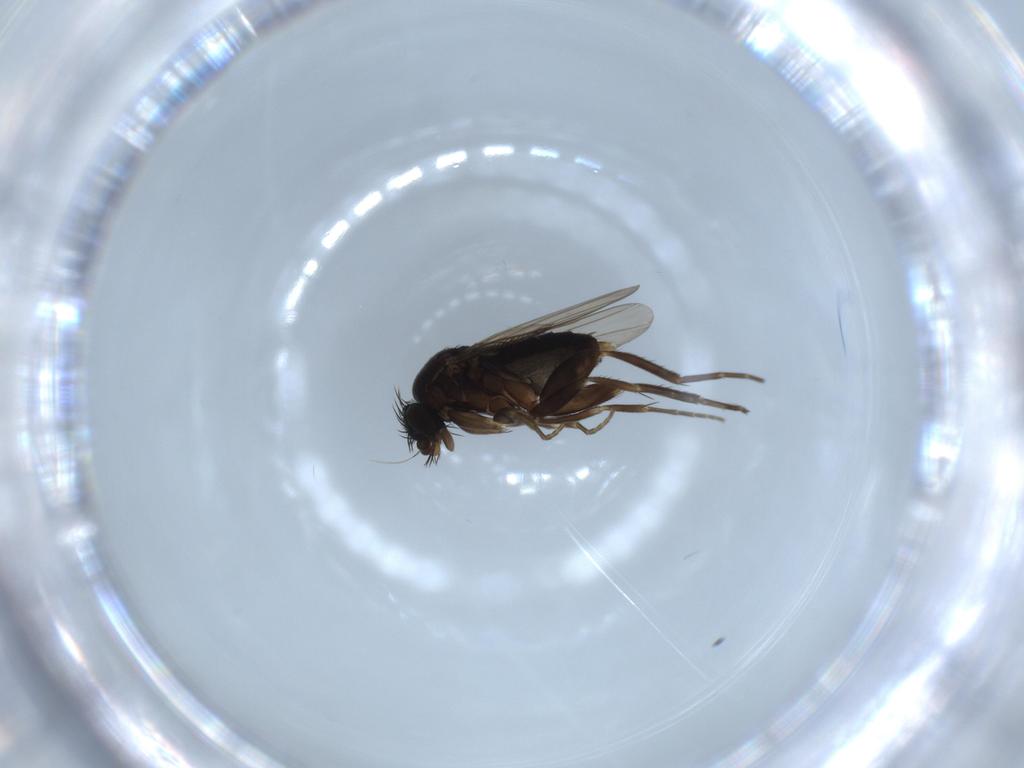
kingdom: Animalia
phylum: Arthropoda
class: Insecta
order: Diptera
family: Phoridae
